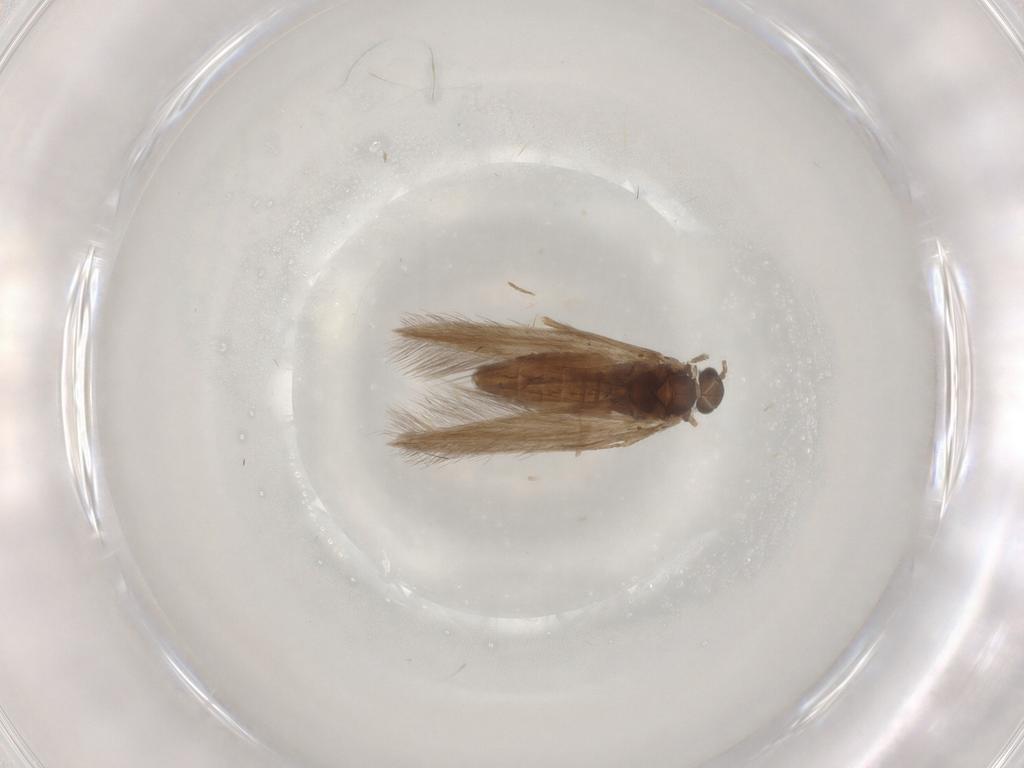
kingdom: Animalia
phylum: Arthropoda
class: Insecta
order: Trichoptera
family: Hydroptilidae
